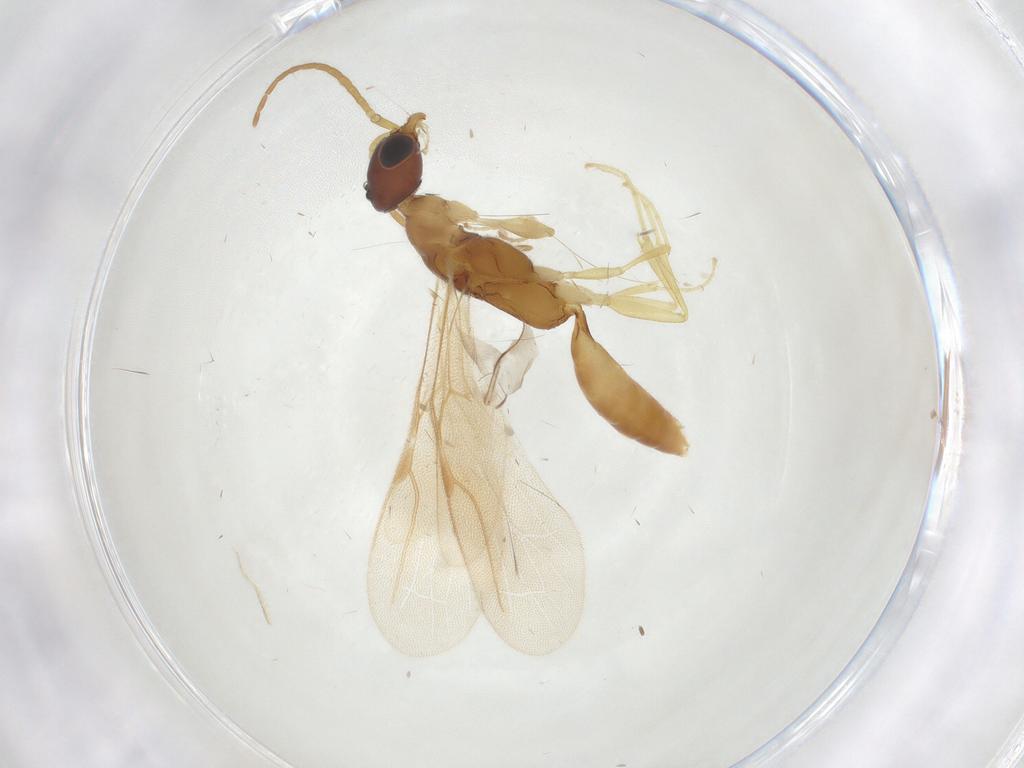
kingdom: Animalia
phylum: Arthropoda
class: Insecta
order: Hymenoptera
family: Bethylidae
